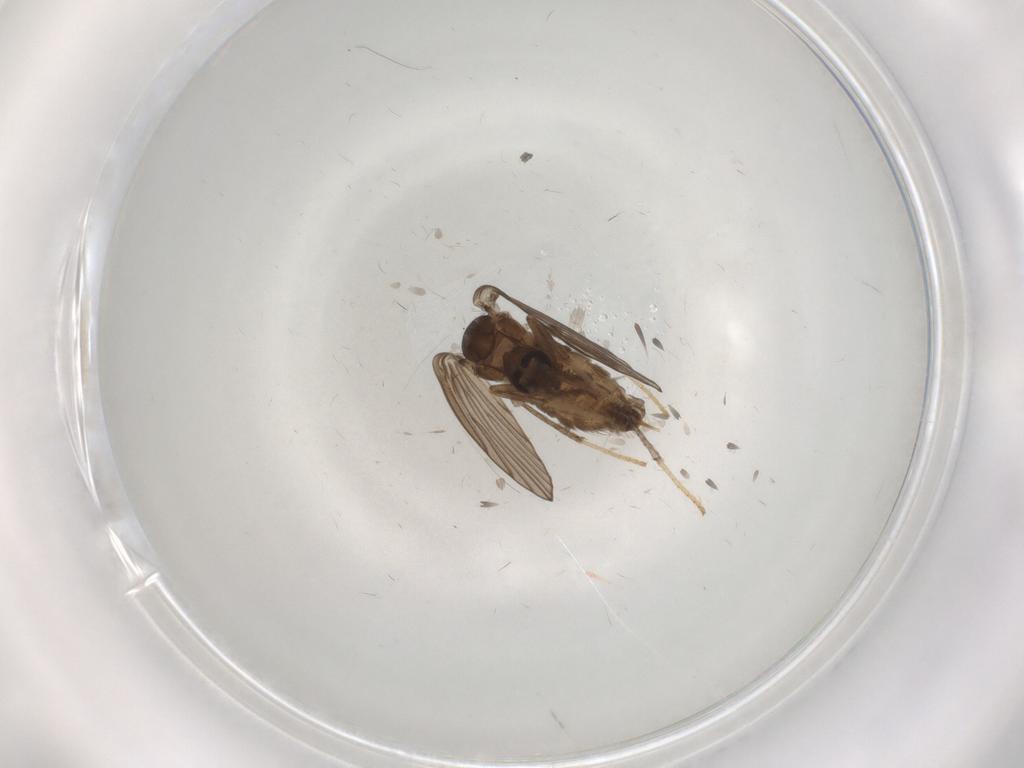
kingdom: Animalia
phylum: Arthropoda
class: Insecta
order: Diptera
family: Psychodidae
